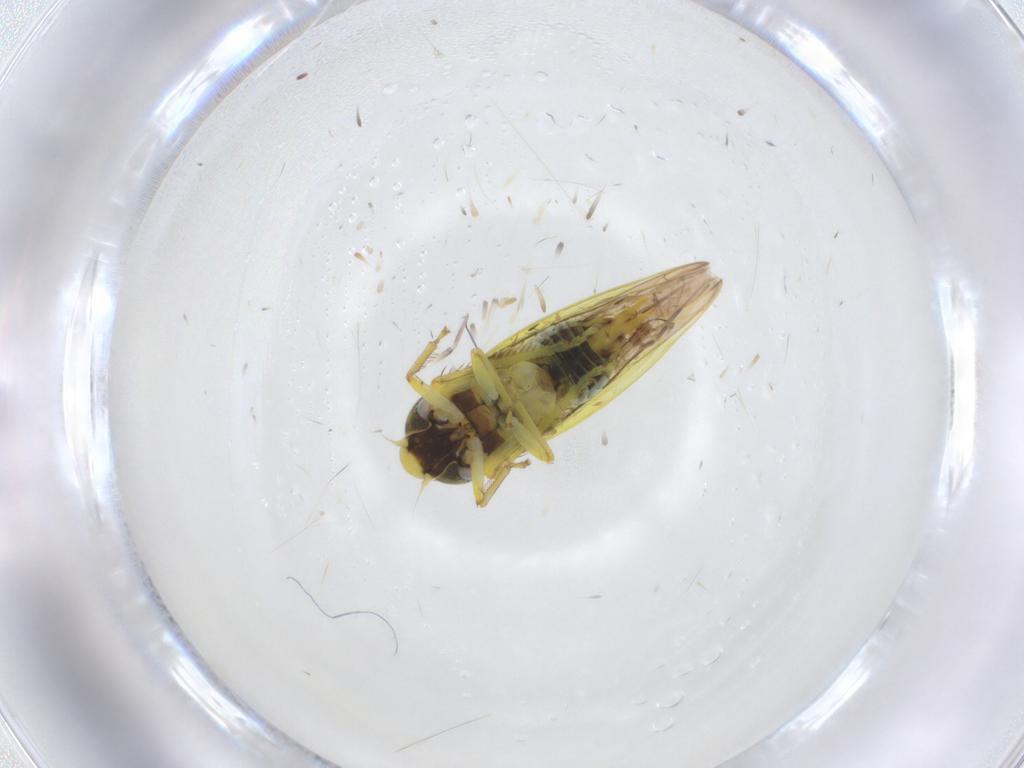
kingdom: Animalia
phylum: Arthropoda
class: Insecta
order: Hemiptera
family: Cicadellidae
